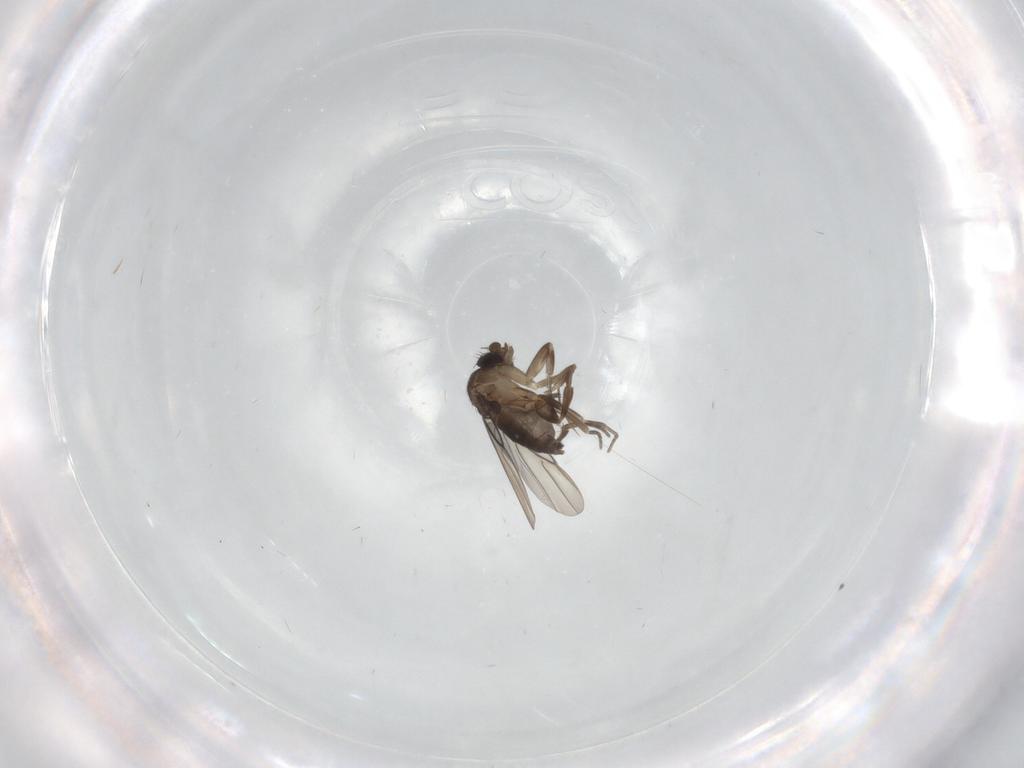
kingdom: Animalia
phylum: Arthropoda
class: Insecta
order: Diptera
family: Phoridae
